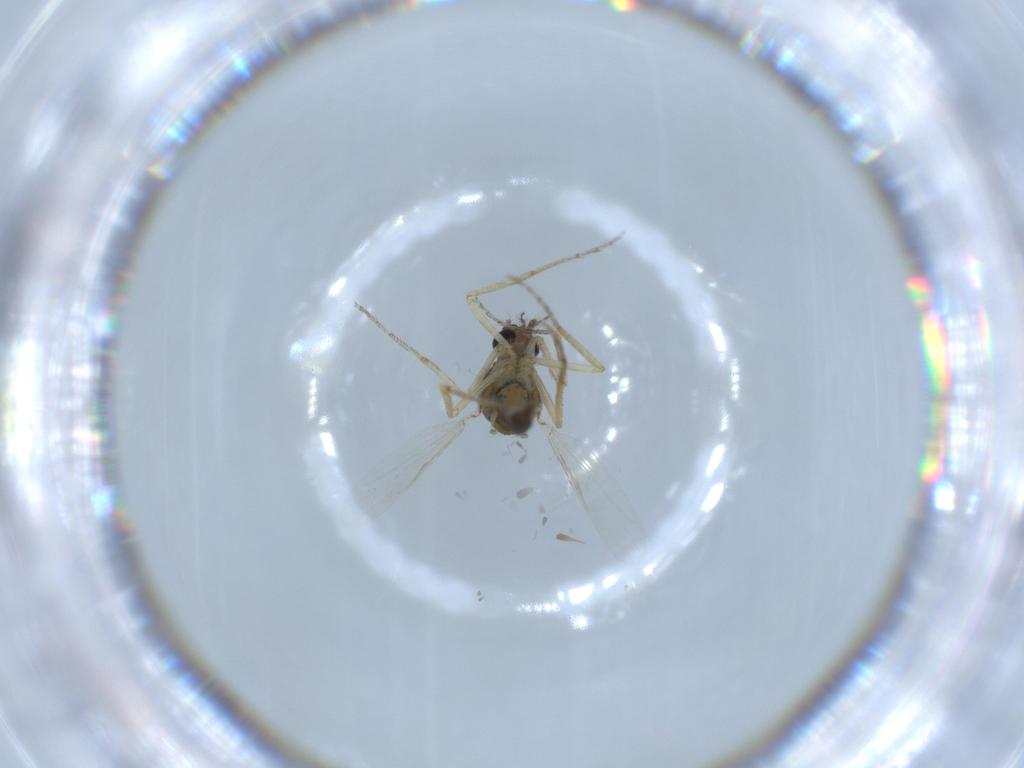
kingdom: Animalia
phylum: Arthropoda
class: Insecta
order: Diptera
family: Ceratopogonidae
